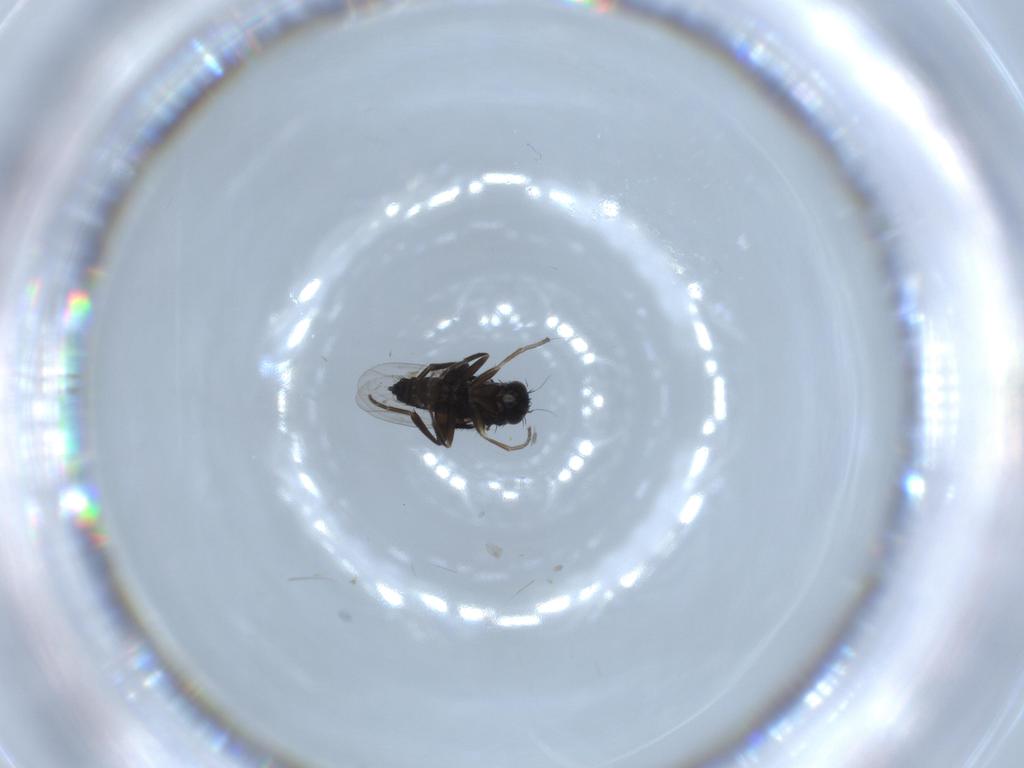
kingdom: Animalia
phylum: Arthropoda
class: Insecta
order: Diptera
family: Phoridae
